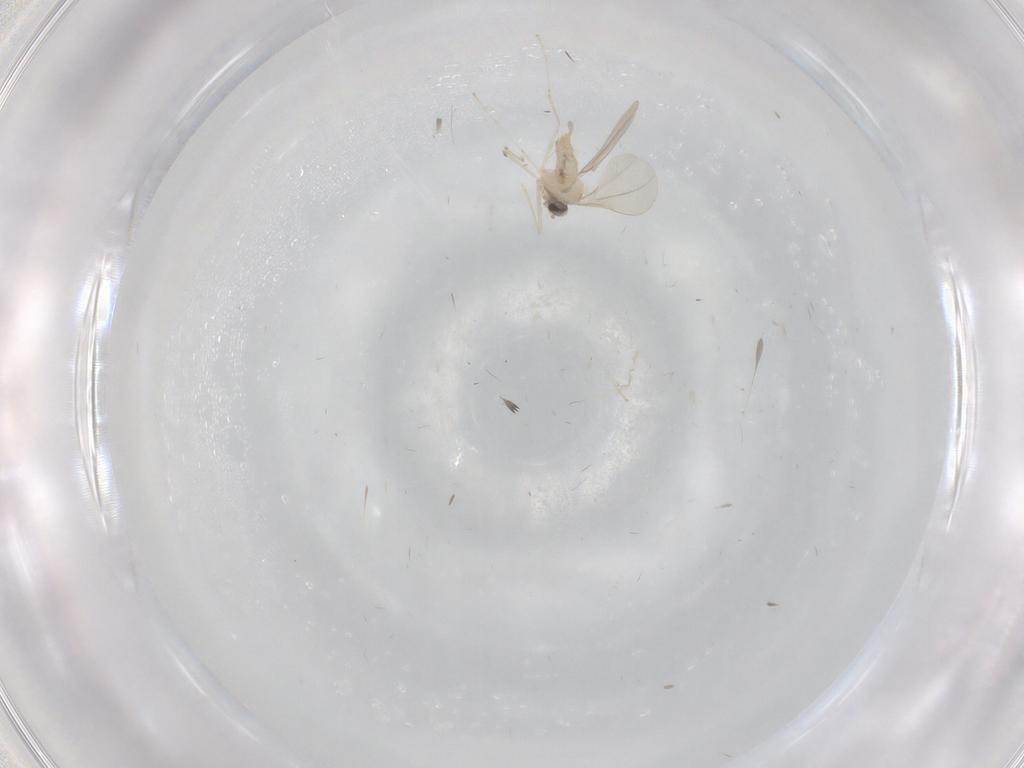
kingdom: Animalia
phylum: Arthropoda
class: Insecta
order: Diptera
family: Cecidomyiidae
